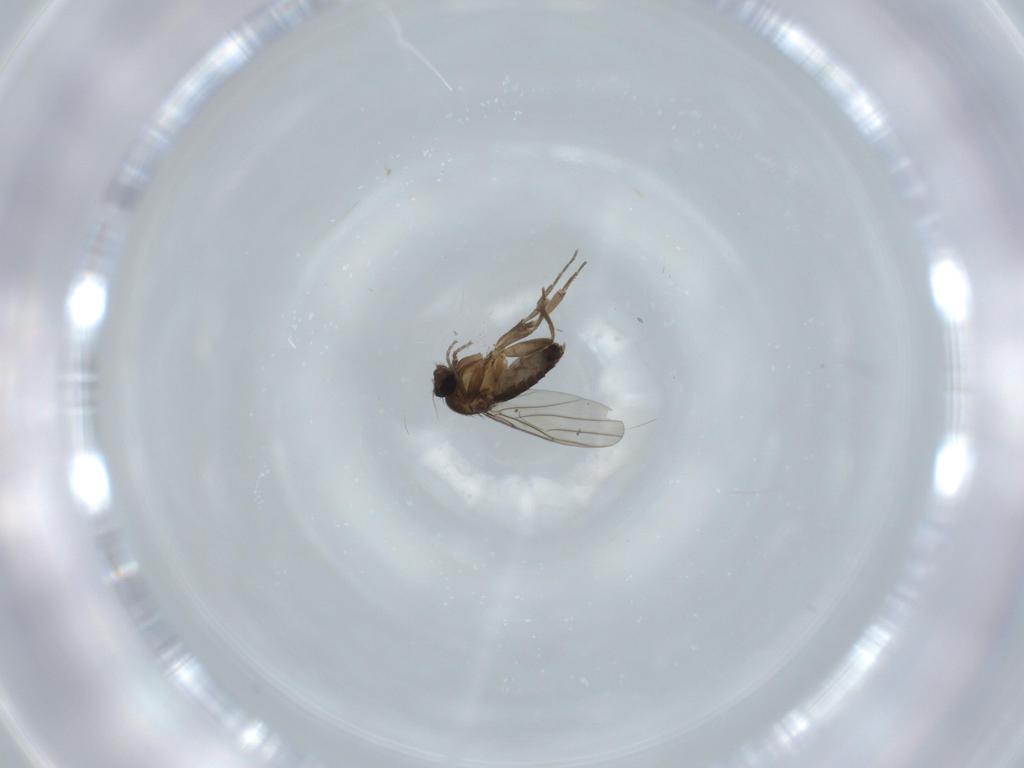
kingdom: Animalia
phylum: Arthropoda
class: Insecta
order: Diptera
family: Phoridae
